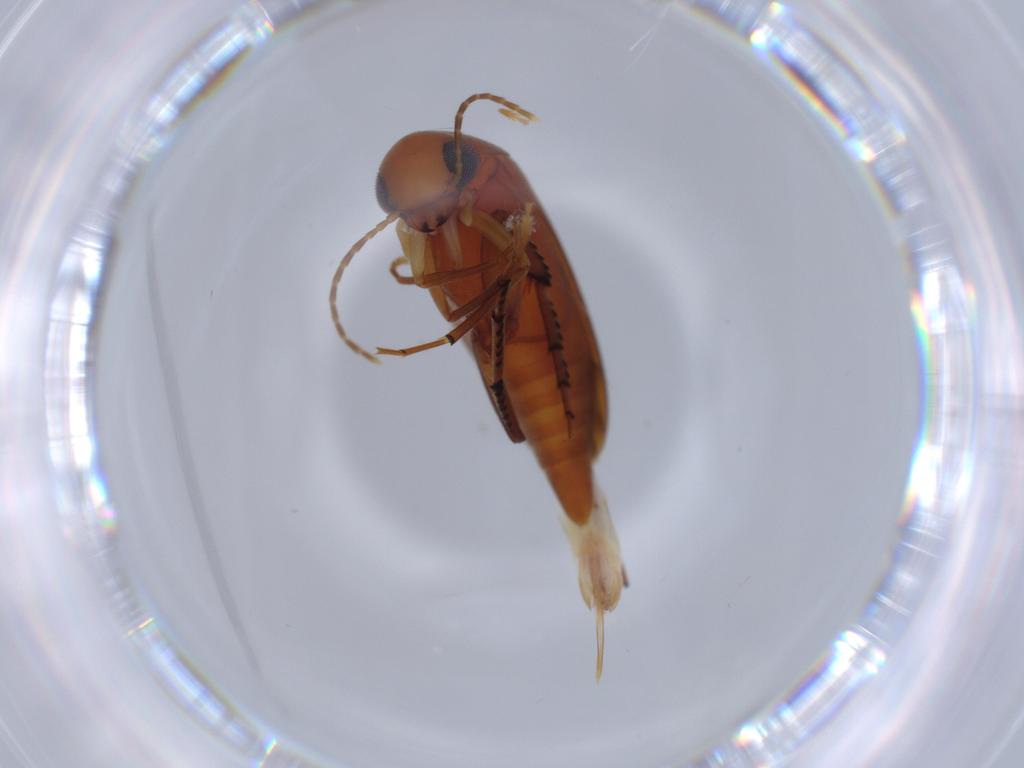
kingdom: Animalia
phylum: Arthropoda
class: Insecta
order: Coleoptera
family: Mordellidae
